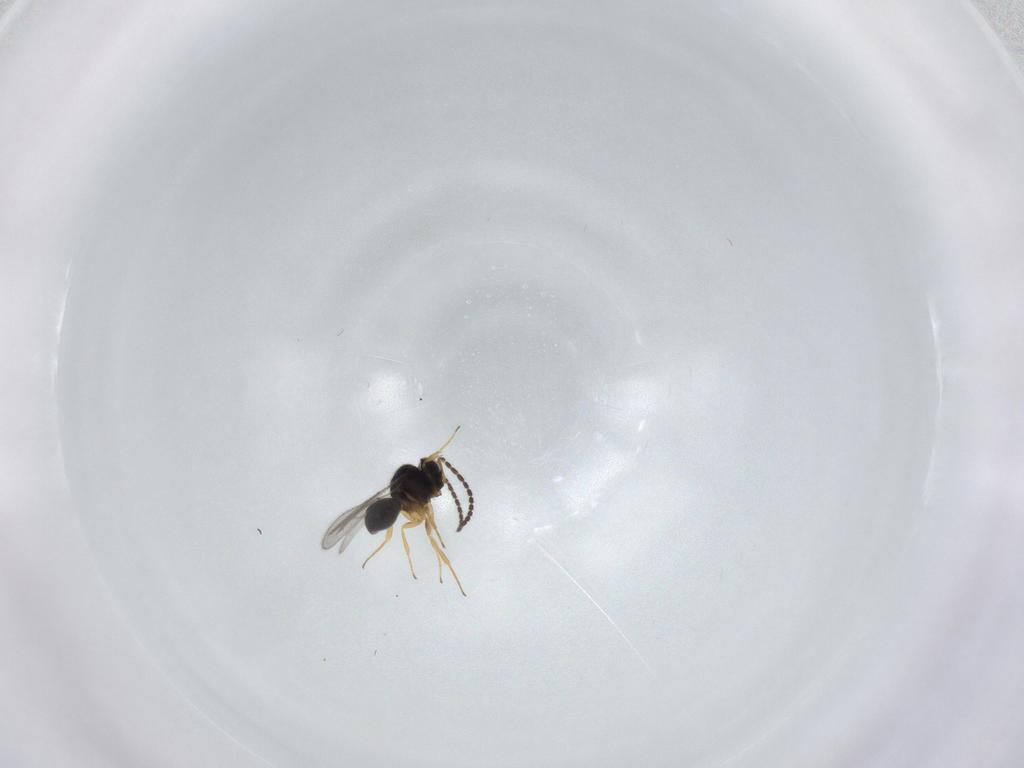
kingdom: Animalia
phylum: Arthropoda
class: Insecta
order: Hymenoptera
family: Scelionidae
